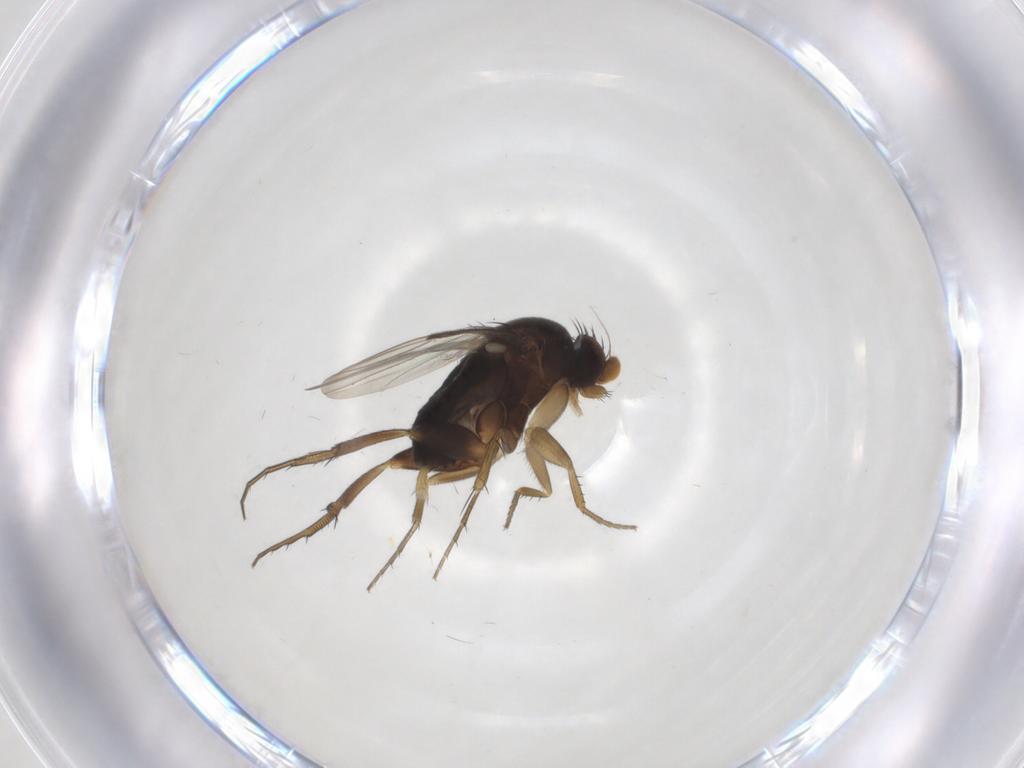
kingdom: Animalia
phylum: Arthropoda
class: Insecta
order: Diptera
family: Phoridae
